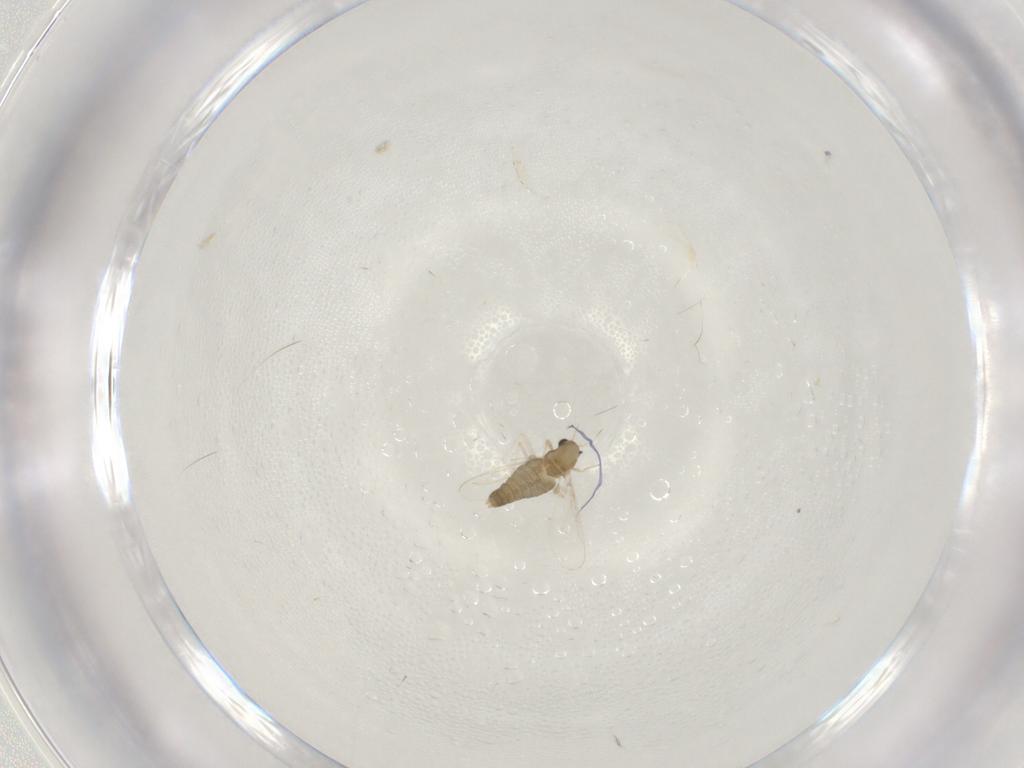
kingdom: Animalia
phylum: Arthropoda
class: Insecta
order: Diptera
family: Chironomidae
